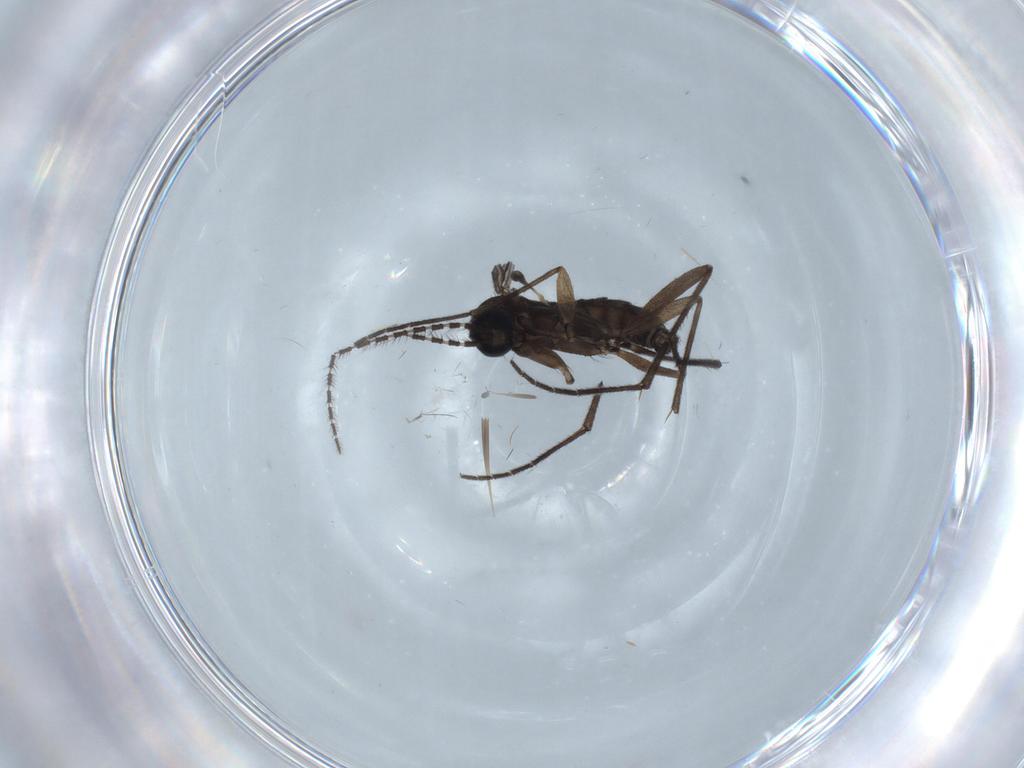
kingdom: Animalia
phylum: Arthropoda
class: Insecta
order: Diptera
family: Sciaridae
